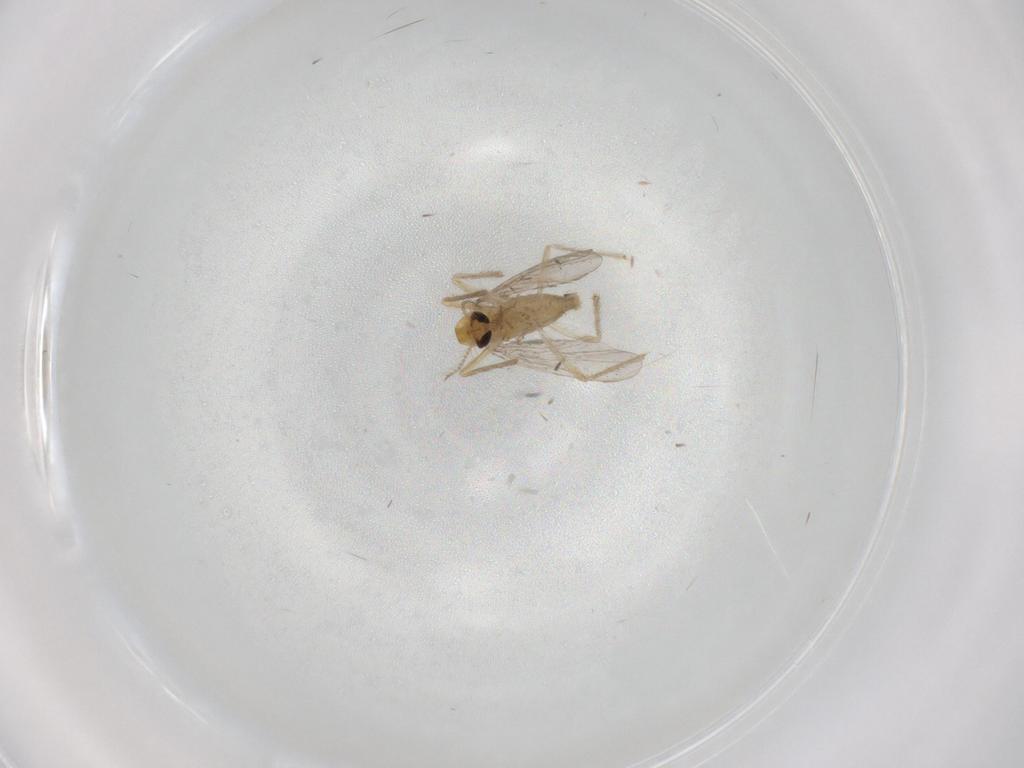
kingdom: Animalia
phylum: Arthropoda
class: Insecta
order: Diptera
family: Chironomidae
